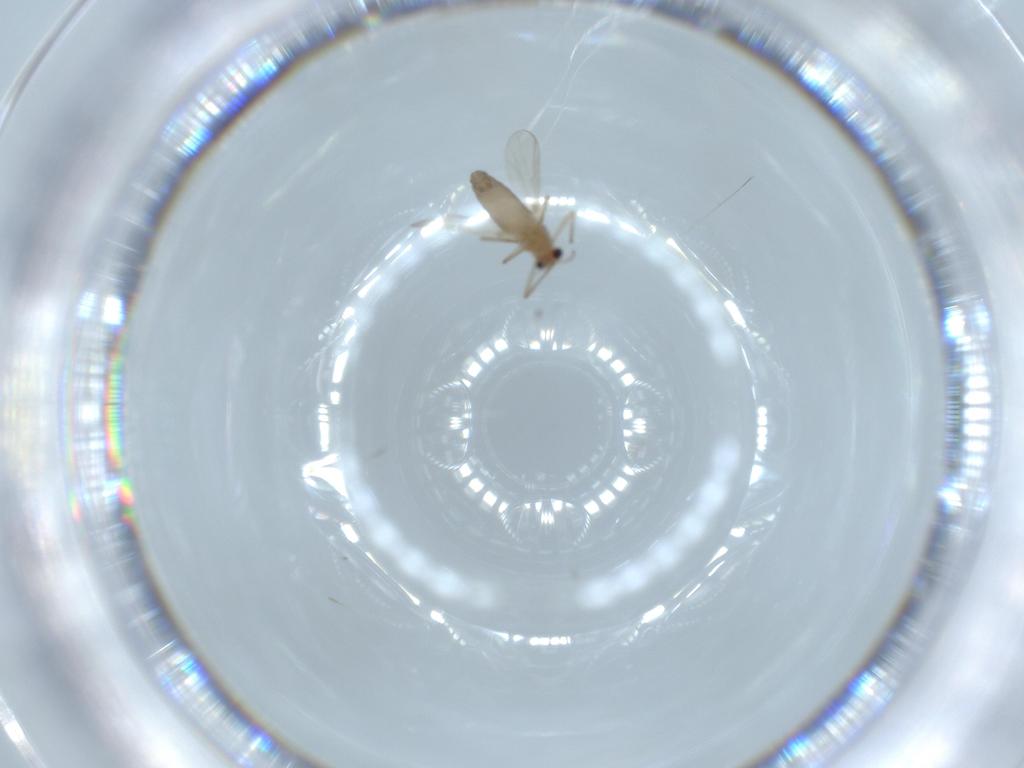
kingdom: Animalia
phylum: Arthropoda
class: Insecta
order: Diptera
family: Chironomidae
